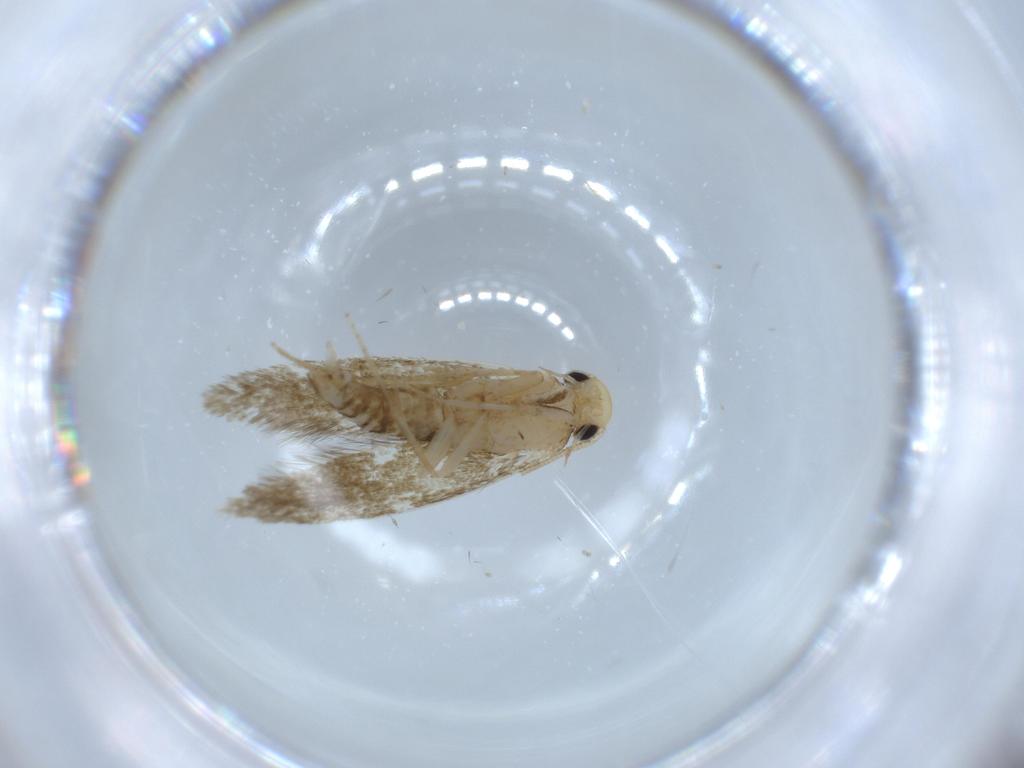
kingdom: Animalia
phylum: Arthropoda
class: Insecta
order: Lepidoptera
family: Tineidae
